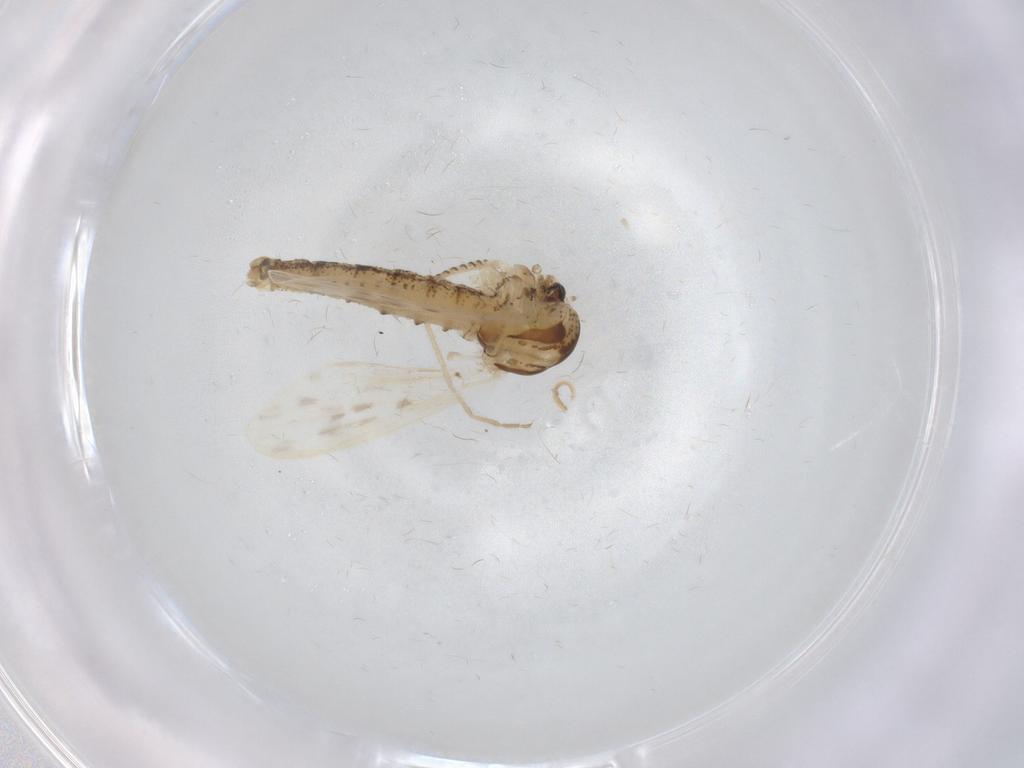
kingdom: Animalia
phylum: Arthropoda
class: Insecta
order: Diptera
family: Chaoboridae
